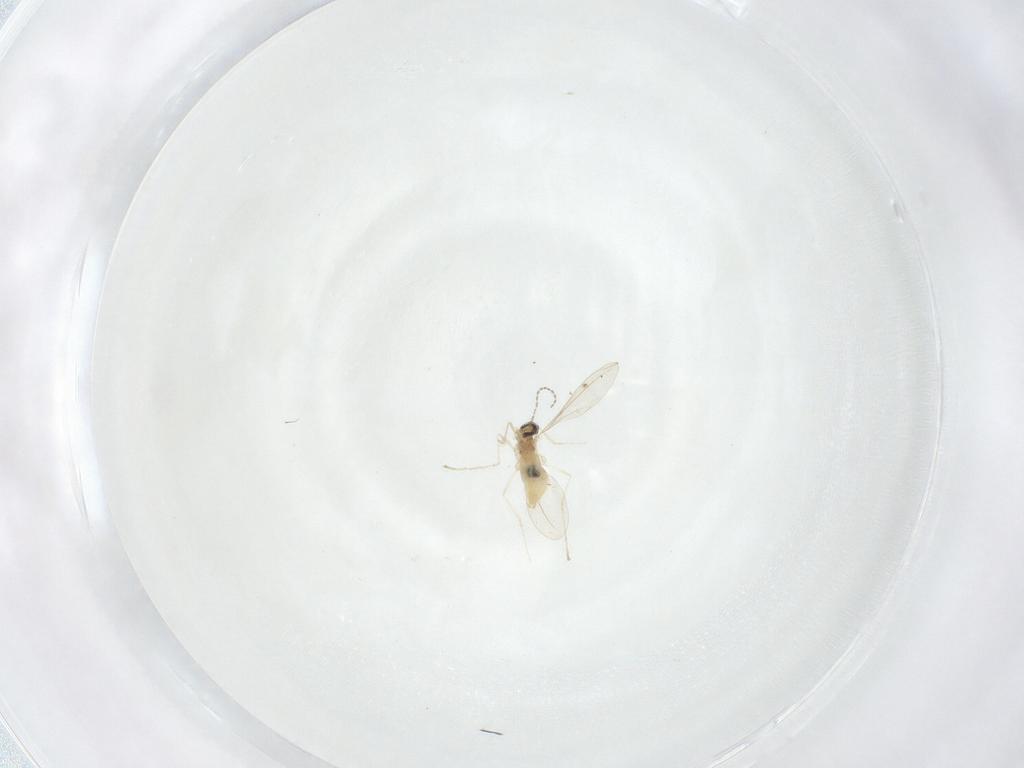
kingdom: Animalia
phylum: Arthropoda
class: Insecta
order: Diptera
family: Cecidomyiidae
